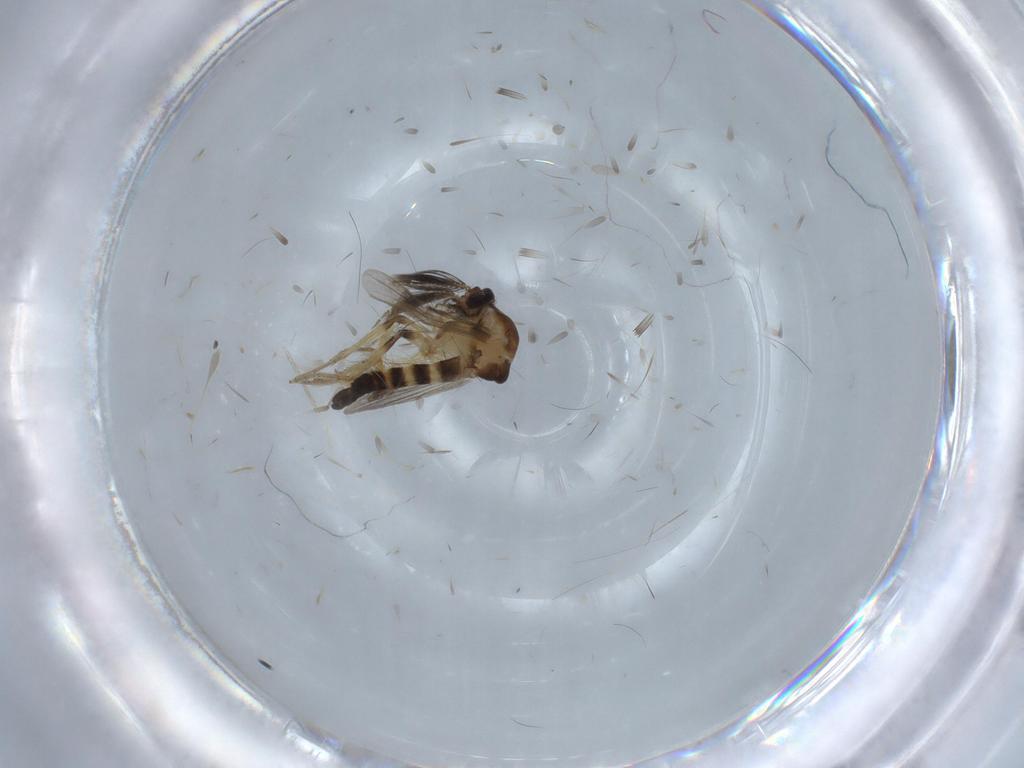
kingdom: Animalia
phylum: Arthropoda
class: Insecta
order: Diptera
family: Ceratopogonidae
